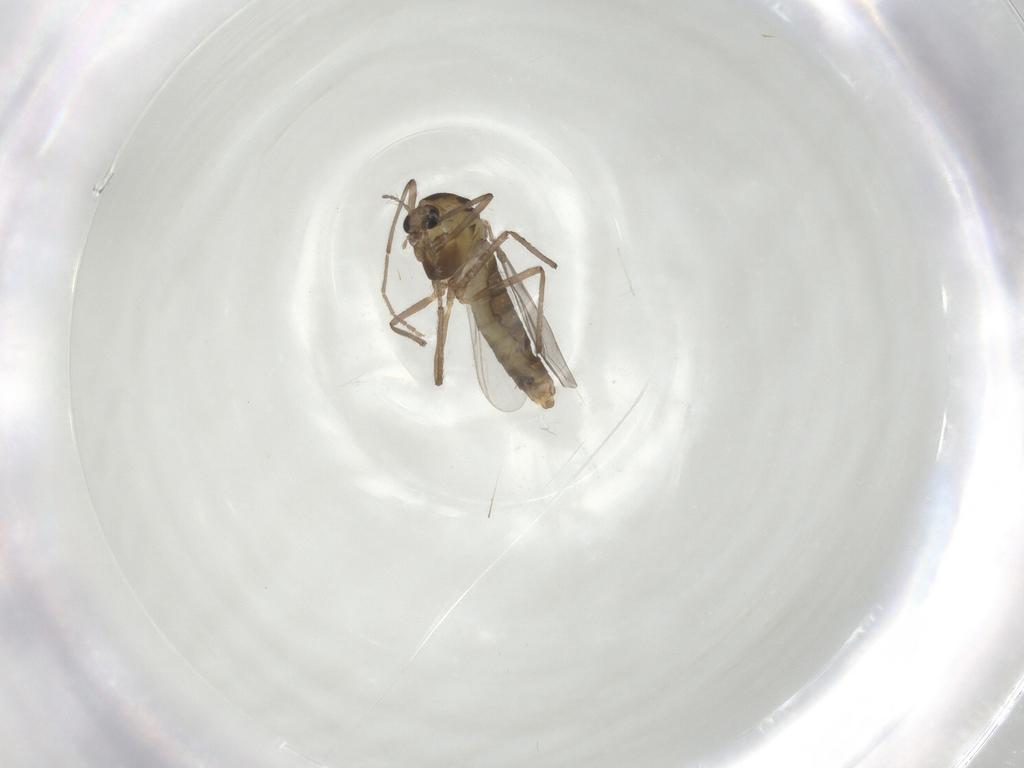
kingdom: Animalia
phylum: Arthropoda
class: Insecta
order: Diptera
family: Chironomidae
